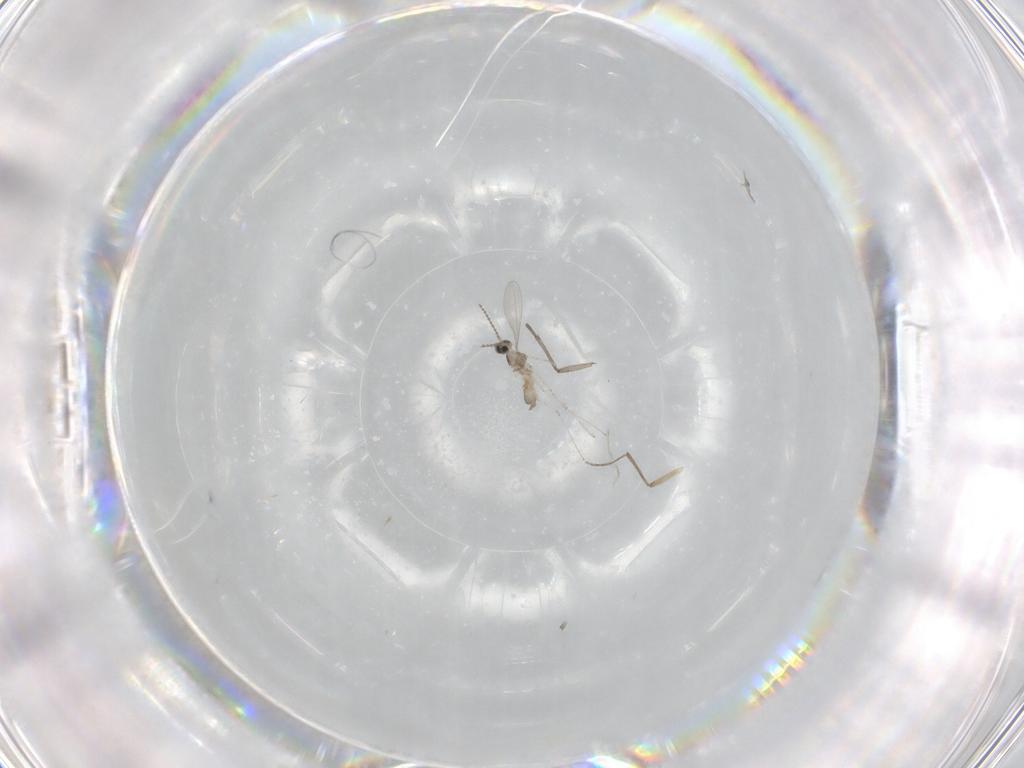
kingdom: Animalia
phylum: Arthropoda
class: Insecta
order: Diptera
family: Cecidomyiidae
